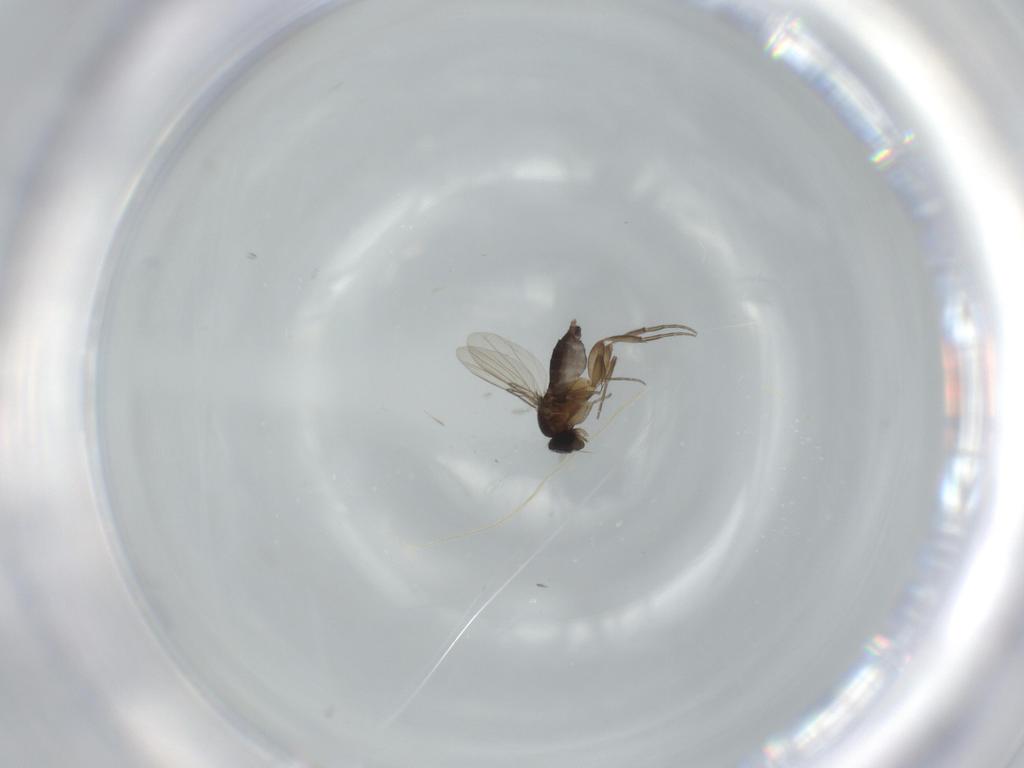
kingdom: Animalia
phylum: Arthropoda
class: Insecta
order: Diptera
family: Phoridae
